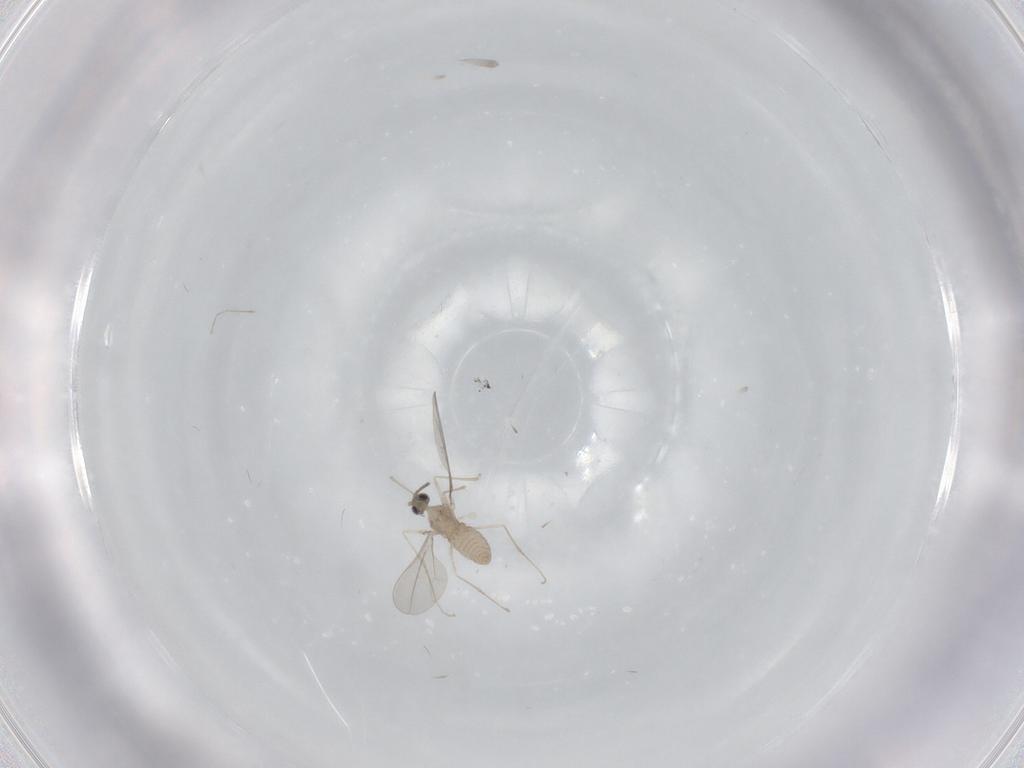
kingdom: Animalia
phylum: Arthropoda
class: Insecta
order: Diptera
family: Cecidomyiidae
